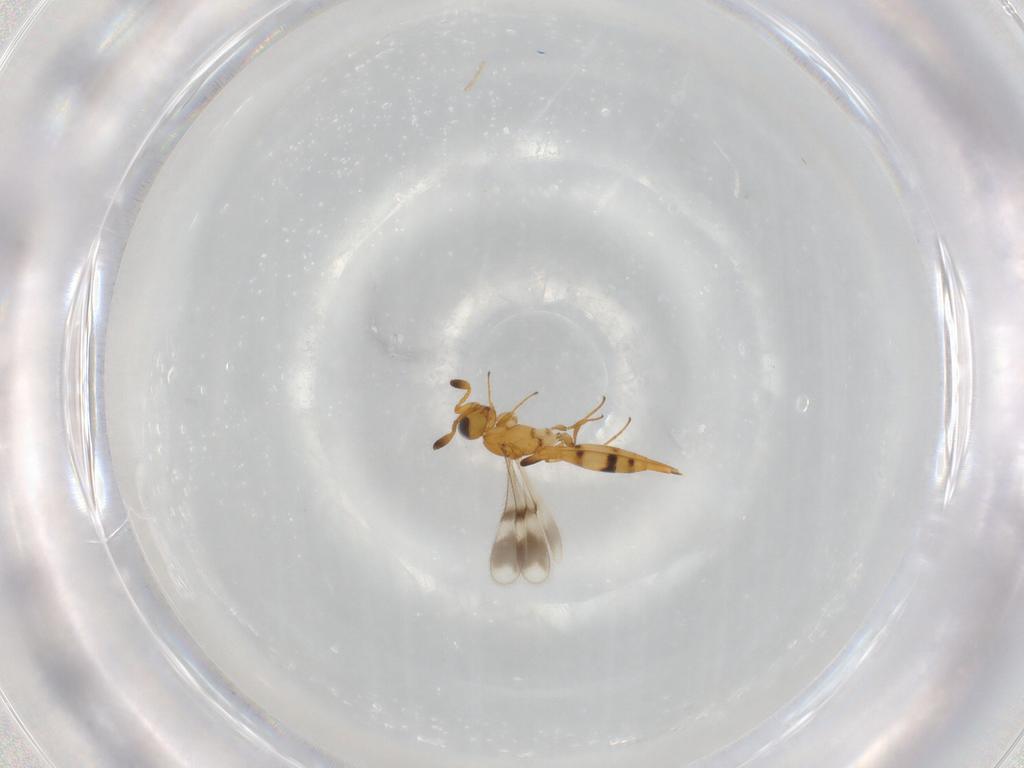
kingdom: Animalia
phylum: Arthropoda
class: Insecta
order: Hymenoptera
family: Scelionidae
